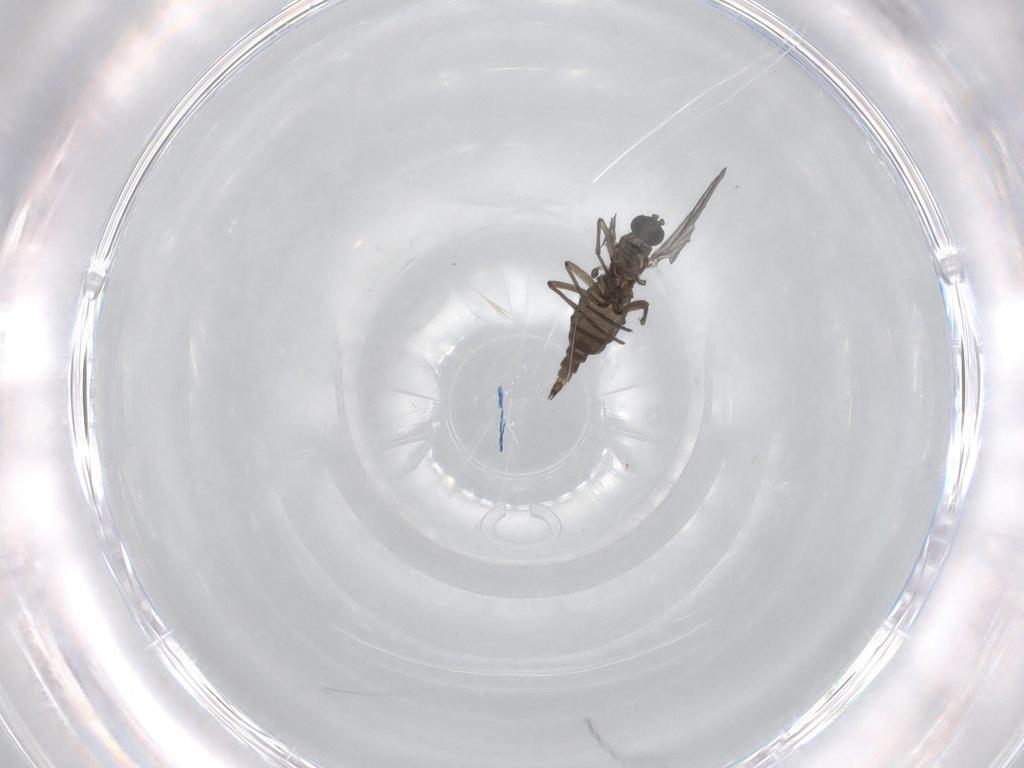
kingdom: Animalia
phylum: Arthropoda
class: Insecta
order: Diptera
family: Sciaridae
